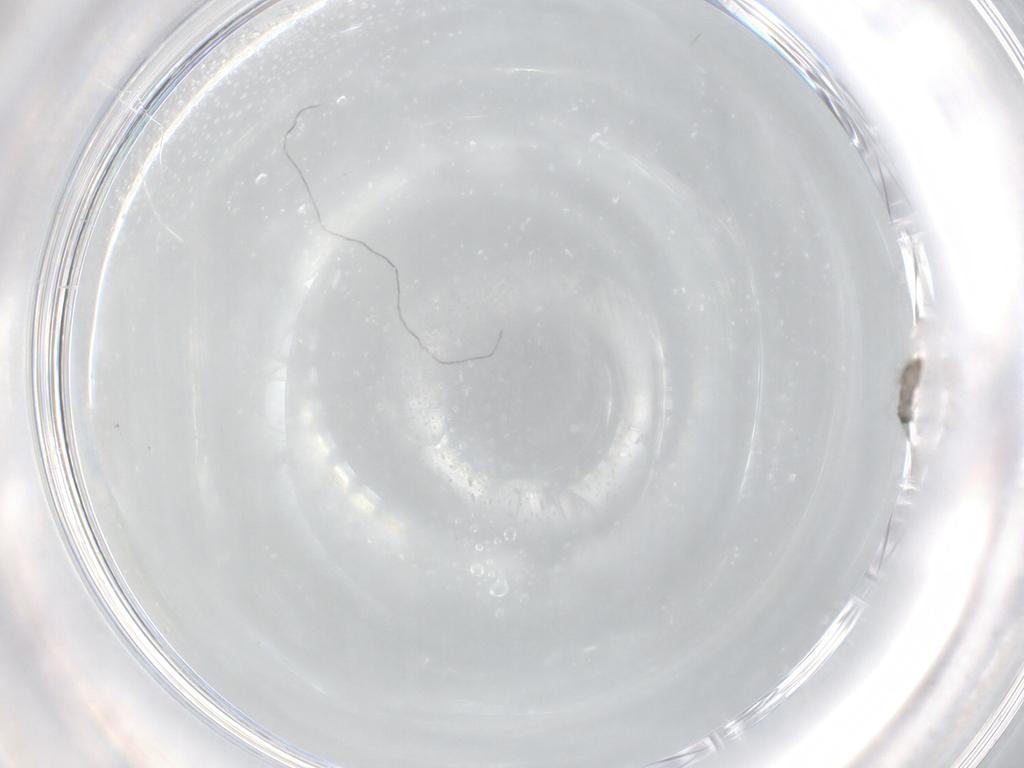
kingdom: Animalia
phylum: Arthropoda
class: Insecta
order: Diptera
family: Cecidomyiidae
